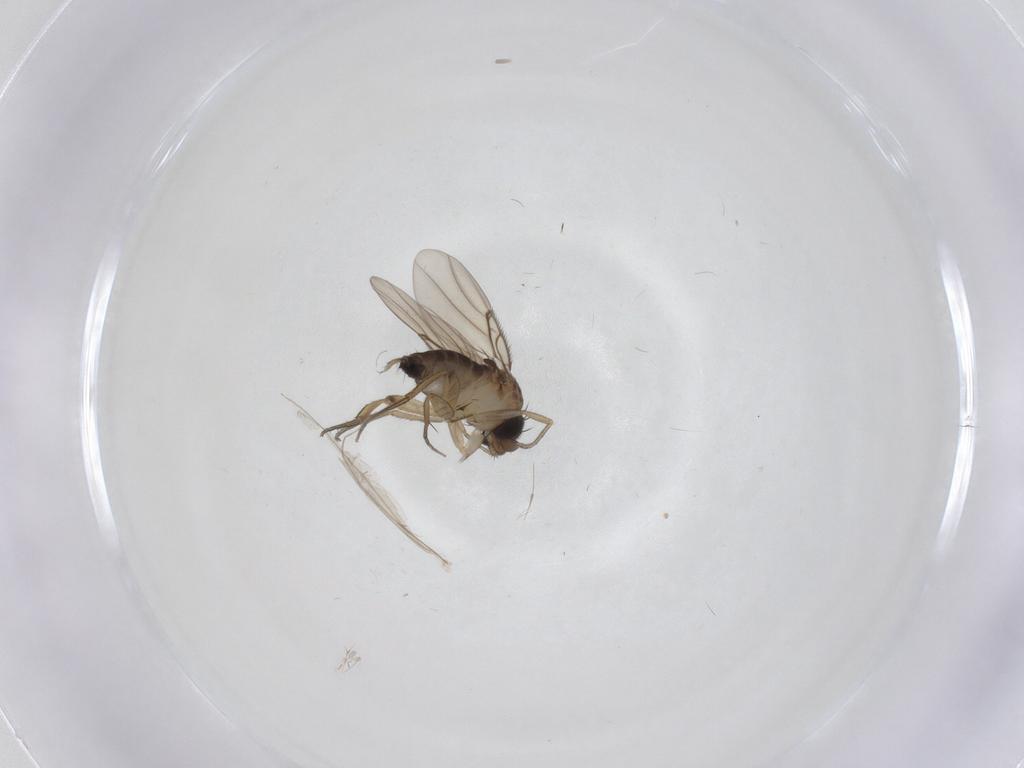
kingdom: Animalia
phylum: Arthropoda
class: Insecta
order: Diptera
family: Phoridae
